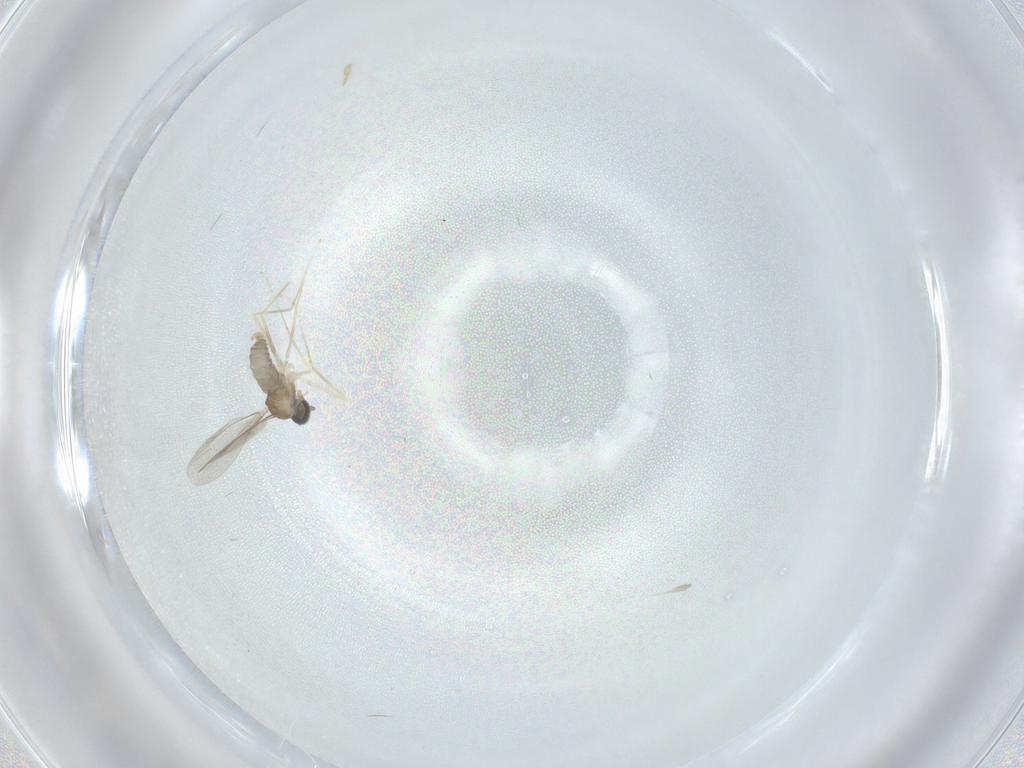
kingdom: Animalia
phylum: Arthropoda
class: Insecta
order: Diptera
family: Cecidomyiidae
